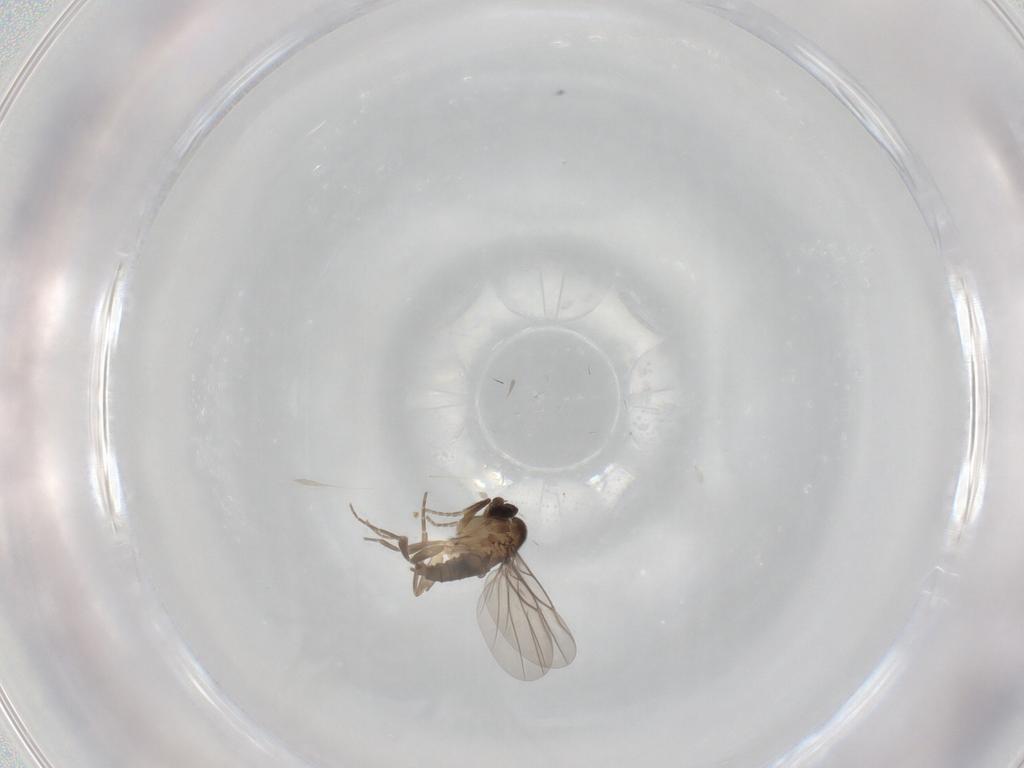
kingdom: Animalia
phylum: Arthropoda
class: Insecta
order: Diptera
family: Phoridae
